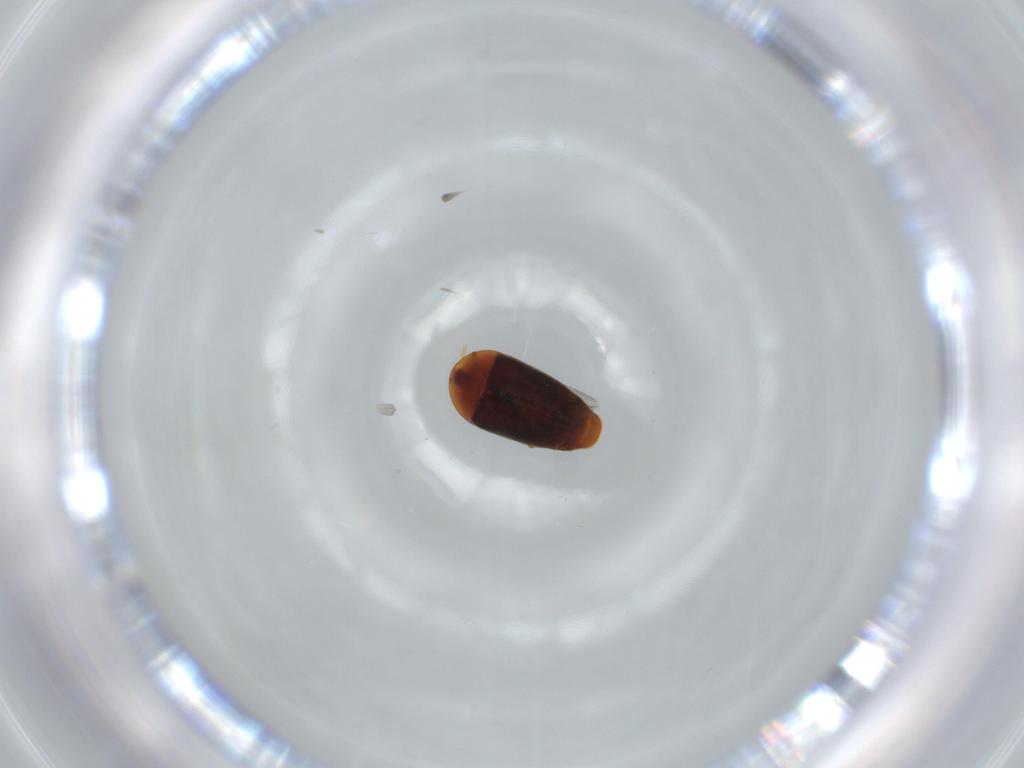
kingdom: Animalia
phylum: Arthropoda
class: Insecta
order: Coleoptera
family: Corylophidae
